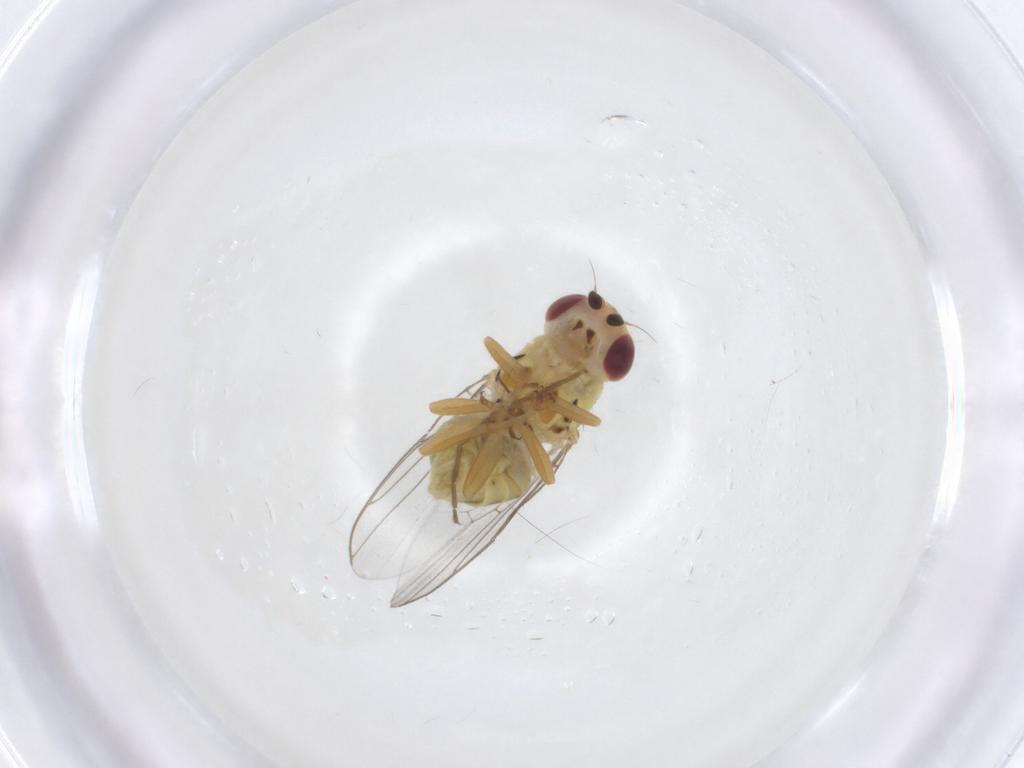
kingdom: Animalia
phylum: Arthropoda
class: Insecta
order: Diptera
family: Chloropidae
